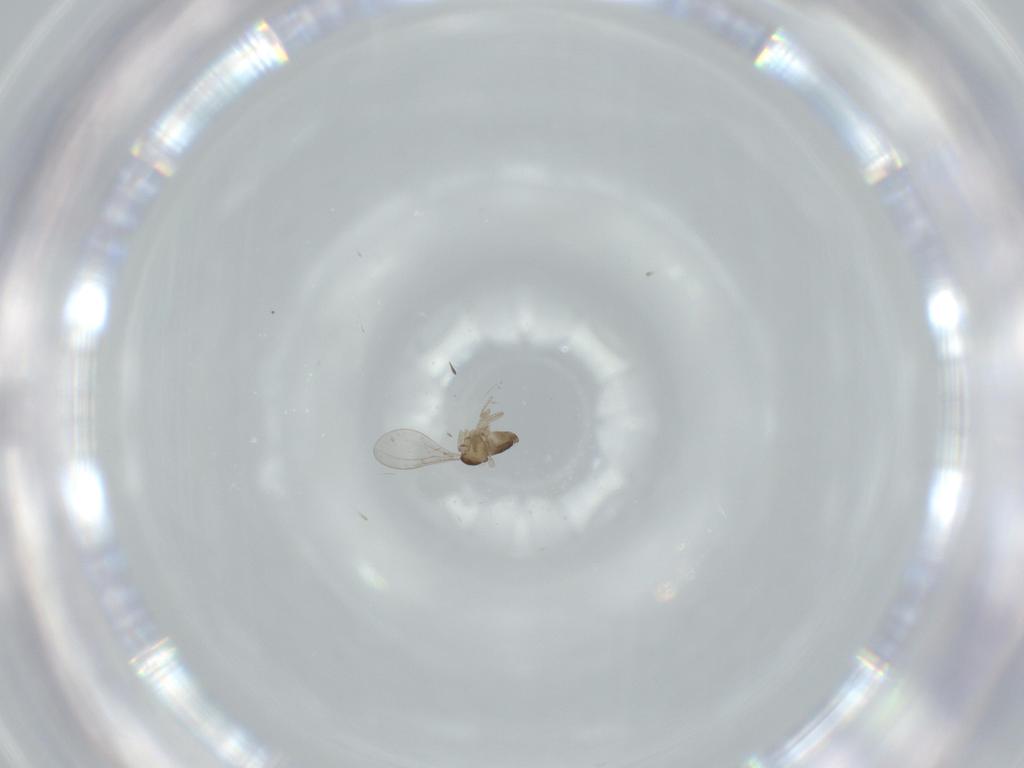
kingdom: Animalia
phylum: Arthropoda
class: Insecta
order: Diptera
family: Cecidomyiidae
